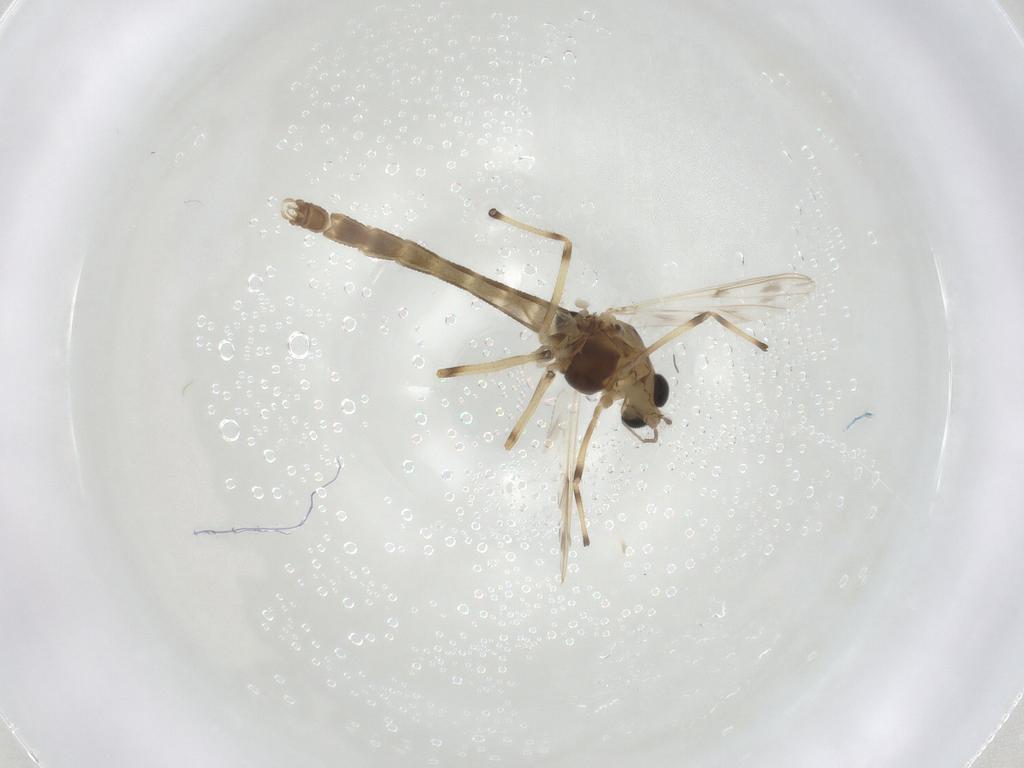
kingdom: Animalia
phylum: Arthropoda
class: Insecta
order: Diptera
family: Chironomidae
